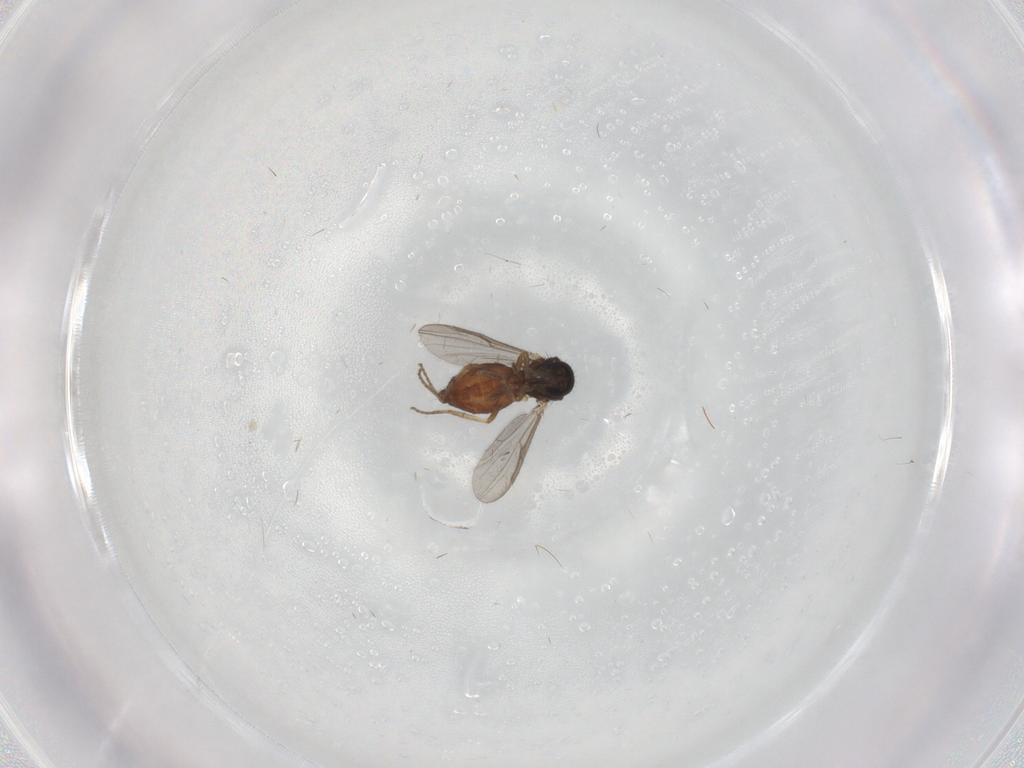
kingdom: Animalia
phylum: Arthropoda
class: Insecta
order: Diptera
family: Ceratopogonidae
